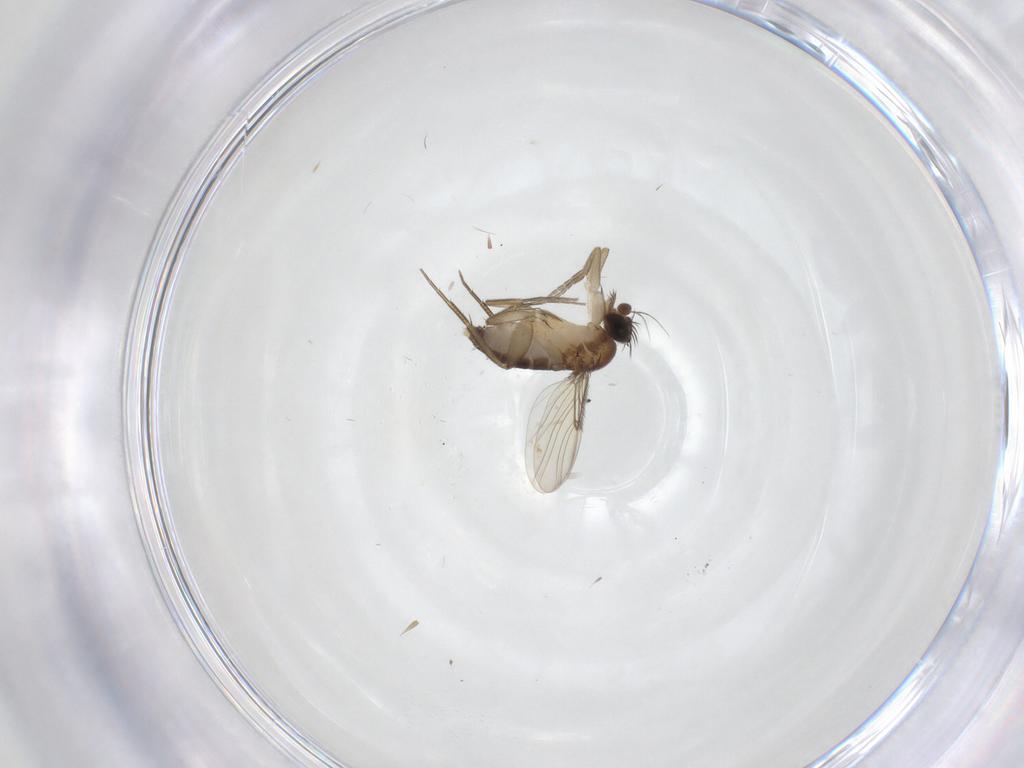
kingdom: Animalia
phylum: Arthropoda
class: Insecta
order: Diptera
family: Dolichopodidae
